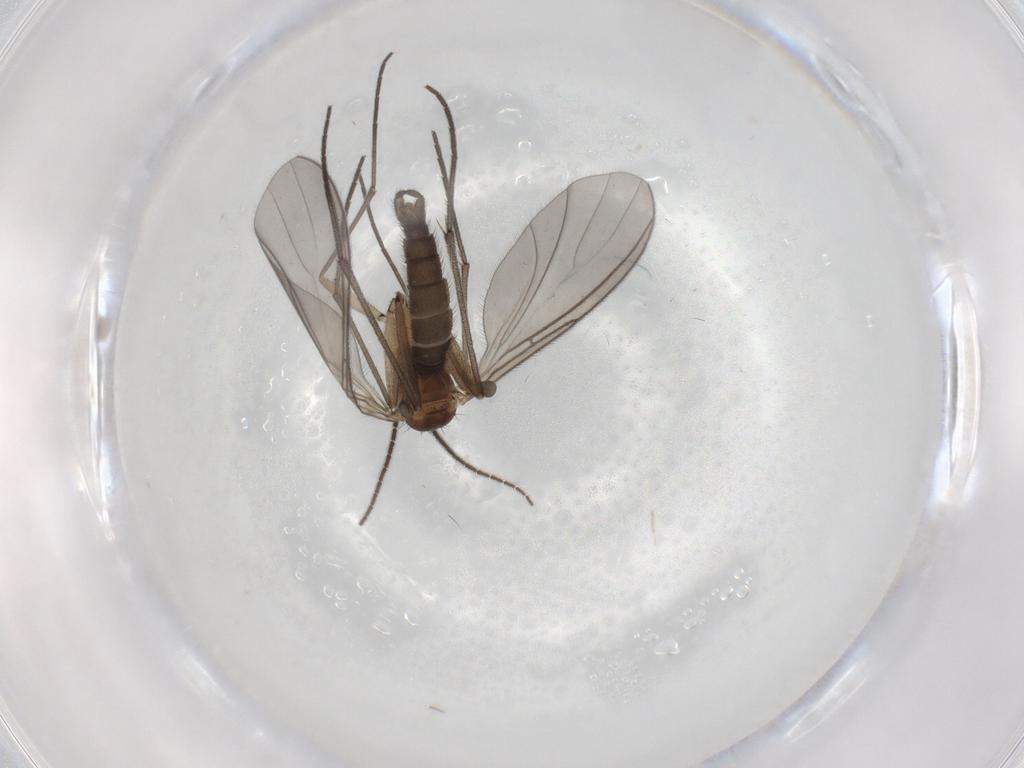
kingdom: Animalia
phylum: Arthropoda
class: Insecta
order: Diptera
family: Sciaridae
